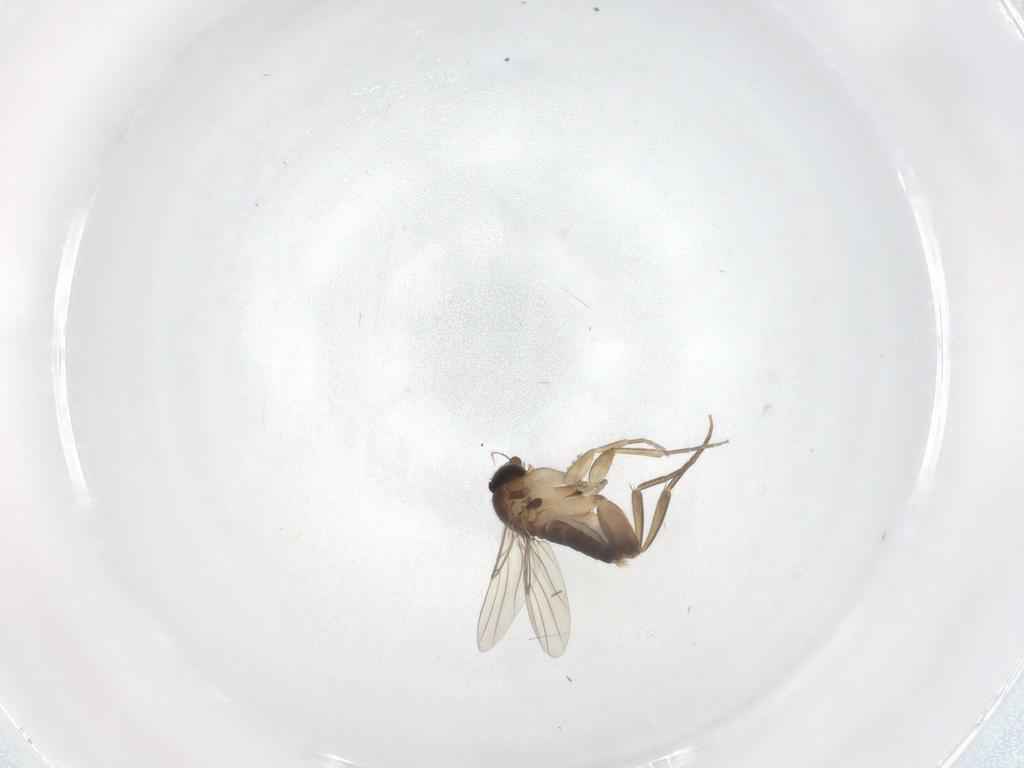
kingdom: Animalia
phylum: Arthropoda
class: Insecta
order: Diptera
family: Phoridae
